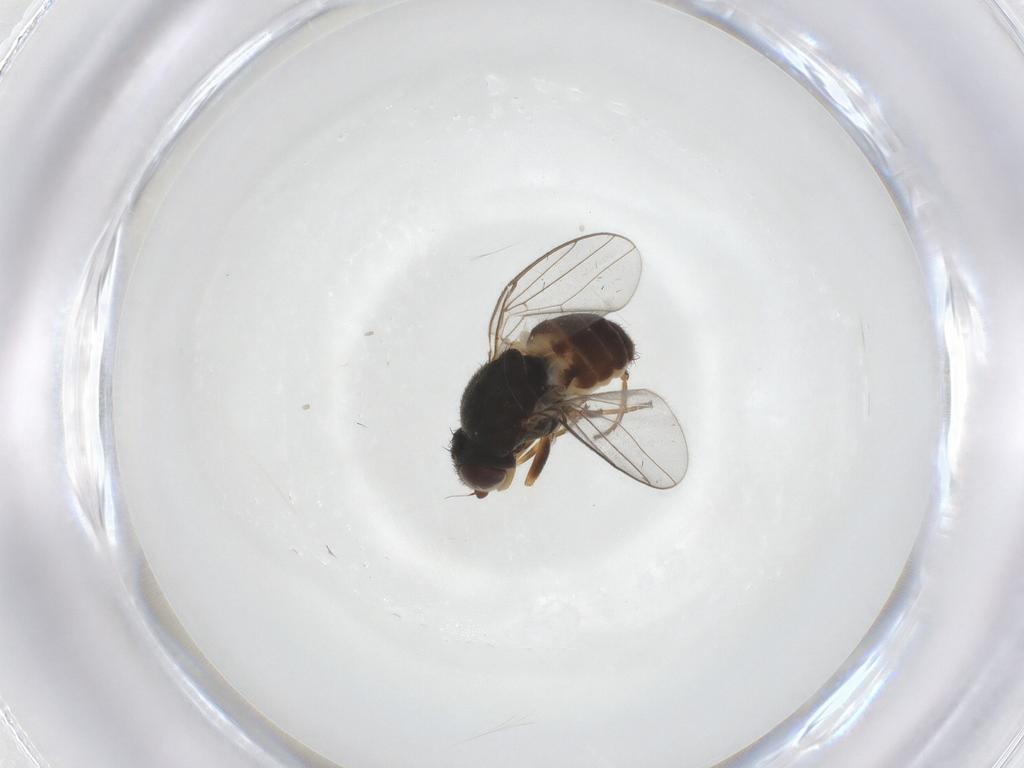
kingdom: Animalia
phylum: Arthropoda
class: Insecta
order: Diptera
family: Chloropidae
